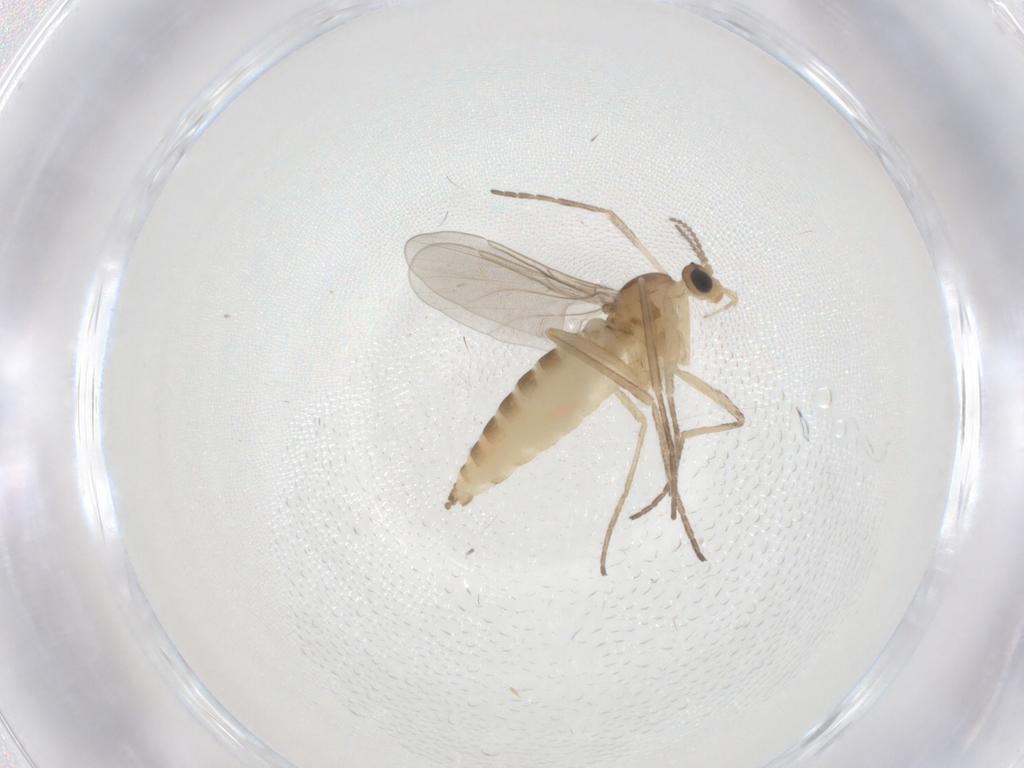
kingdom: Animalia
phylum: Arthropoda
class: Insecta
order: Diptera
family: Cecidomyiidae
